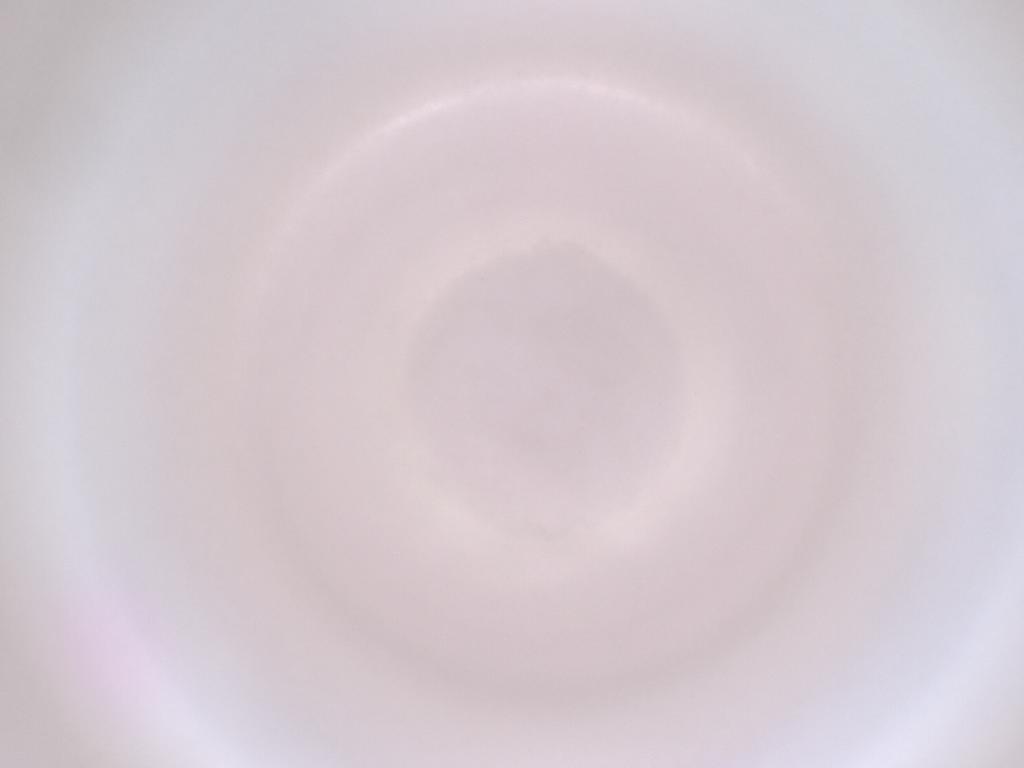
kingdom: Animalia
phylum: Arthropoda
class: Insecta
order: Diptera
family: Cecidomyiidae
